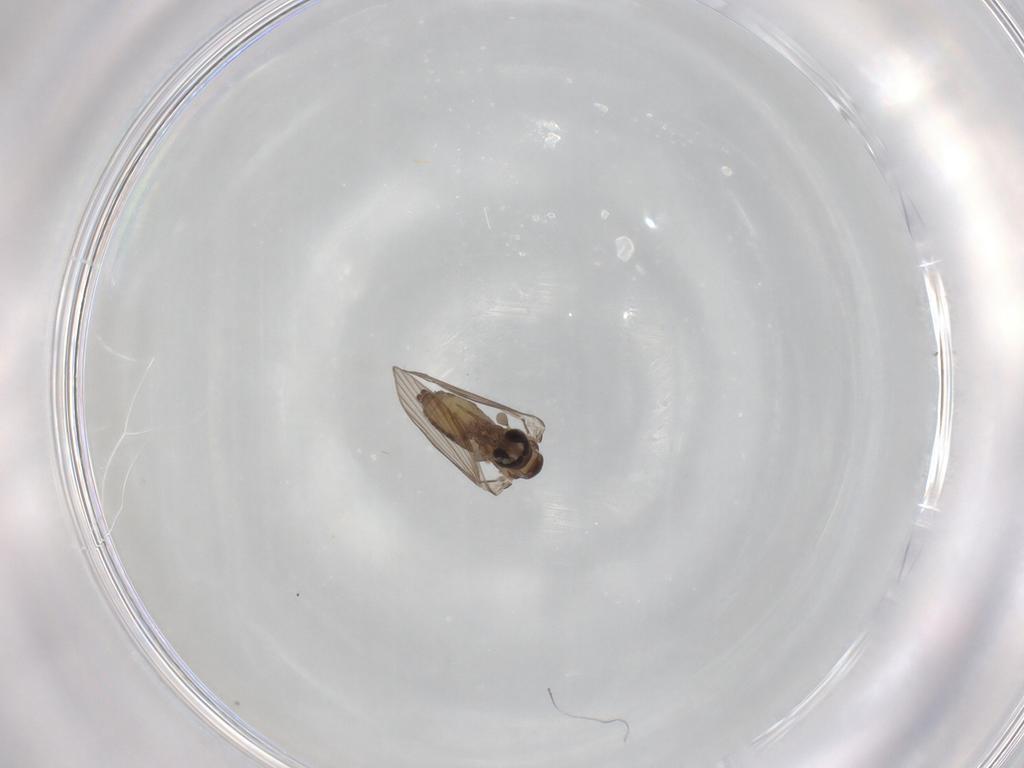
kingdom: Animalia
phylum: Arthropoda
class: Insecta
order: Diptera
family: Psychodidae
